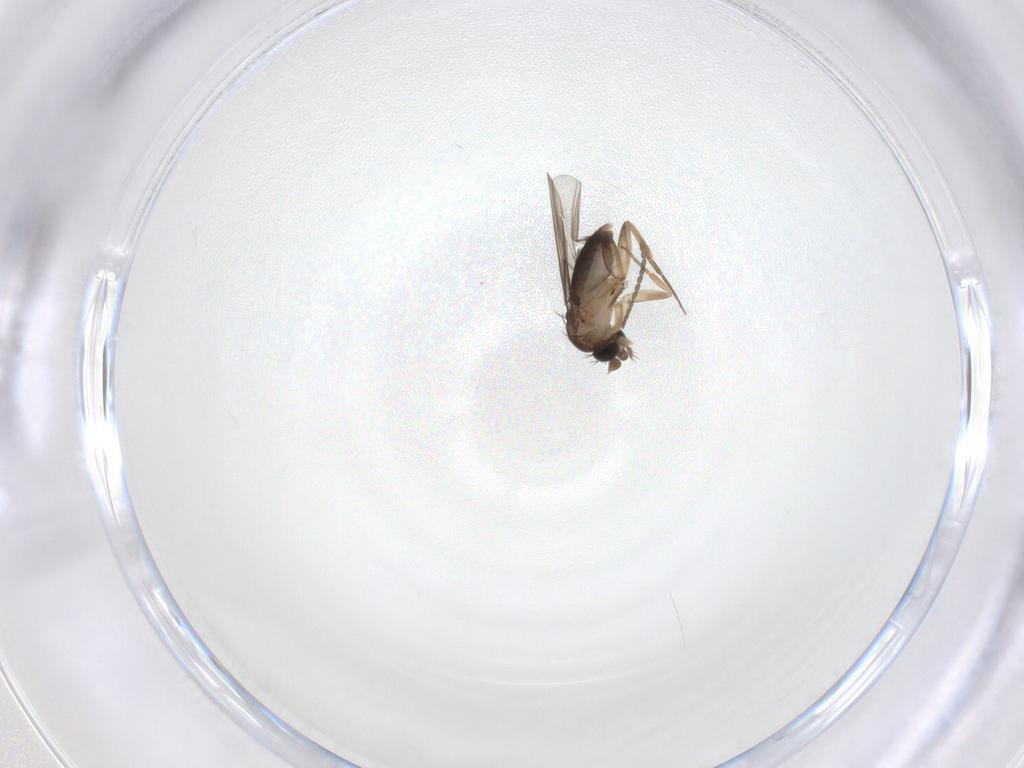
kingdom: Animalia
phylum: Arthropoda
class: Insecta
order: Diptera
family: Cecidomyiidae
